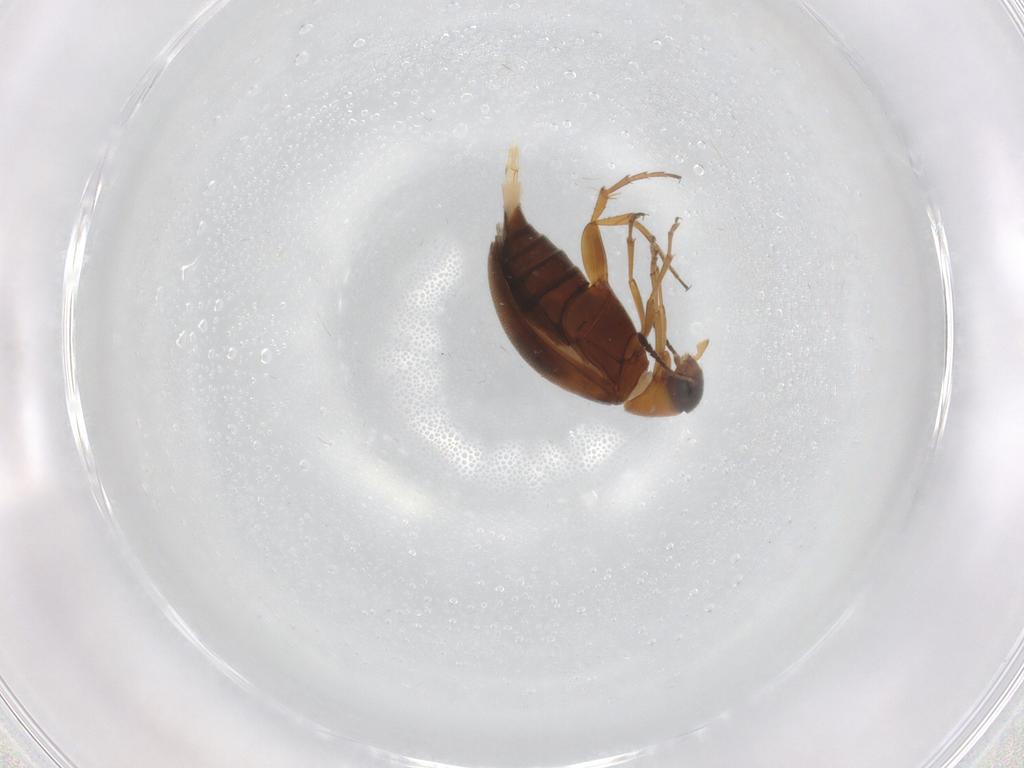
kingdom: Animalia
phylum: Arthropoda
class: Insecta
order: Coleoptera
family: Scraptiidae
